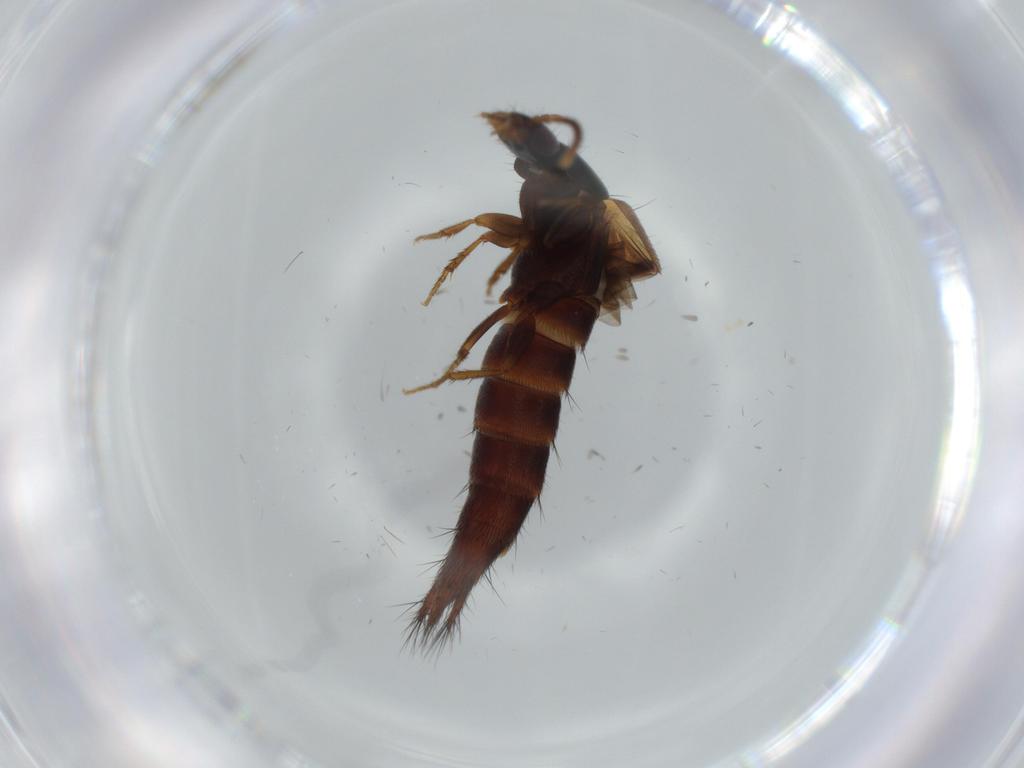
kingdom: Animalia
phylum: Arthropoda
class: Insecta
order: Coleoptera
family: Staphylinidae
